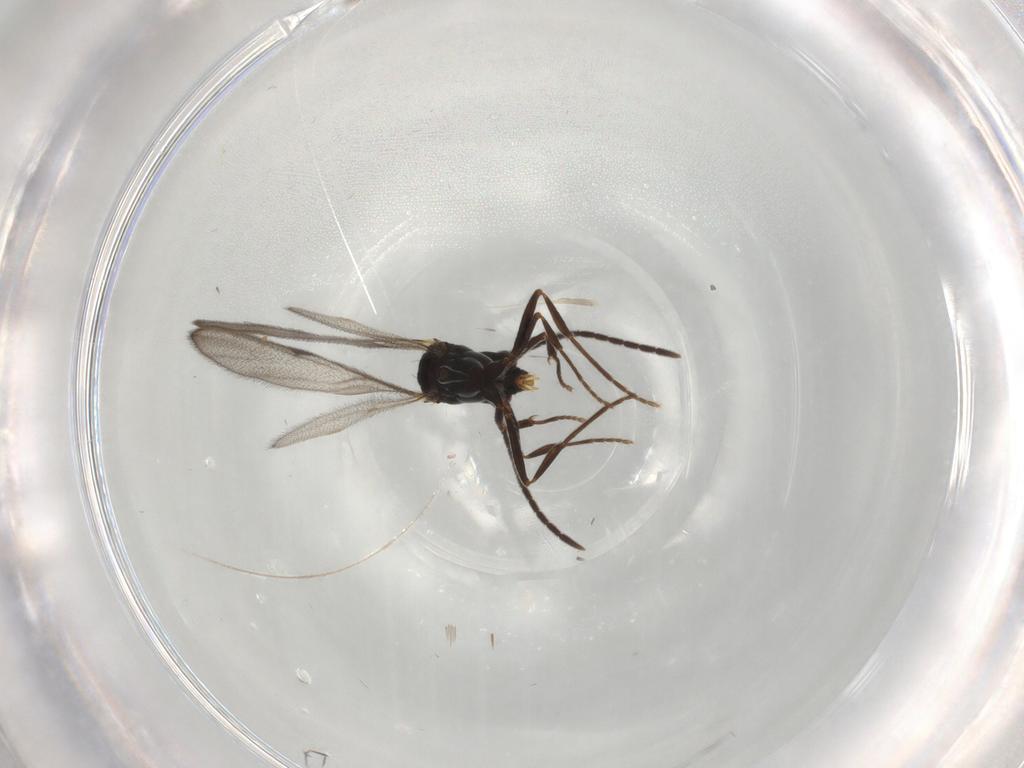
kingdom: Animalia
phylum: Arthropoda
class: Insecta
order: Hymenoptera
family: Formicidae
